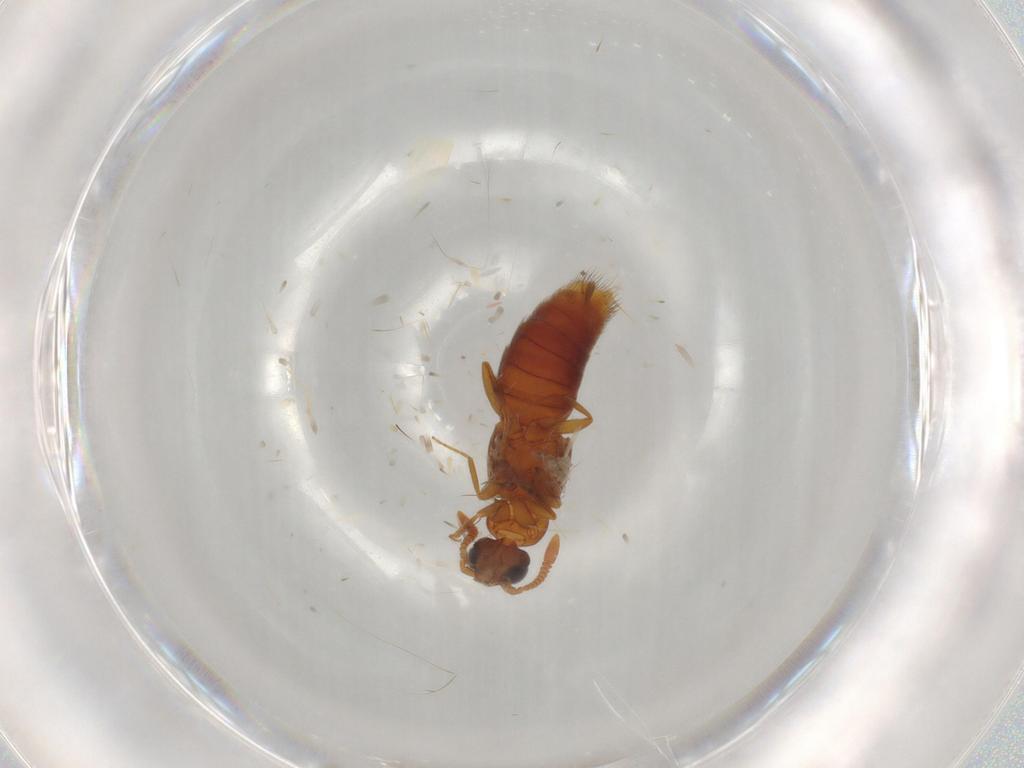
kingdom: Animalia
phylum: Arthropoda
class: Insecta
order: Coleoptera
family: Staphylinidae
